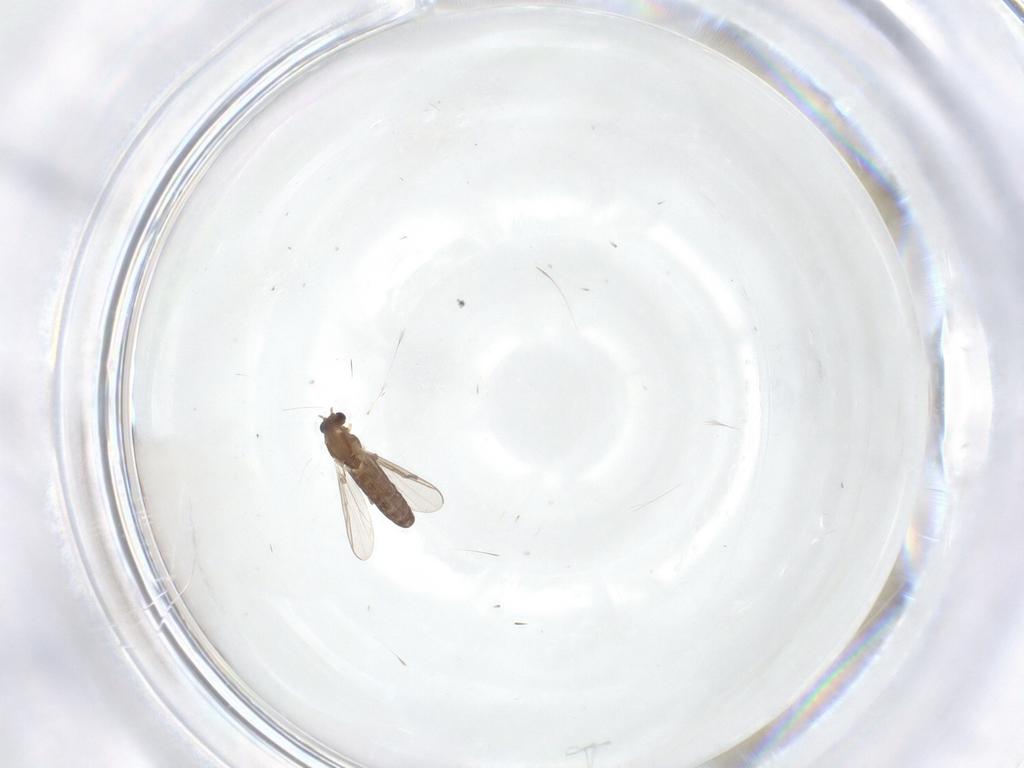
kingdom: Animalia
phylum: Arthropoda
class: Insecta
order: Diptera
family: Chironomidae
